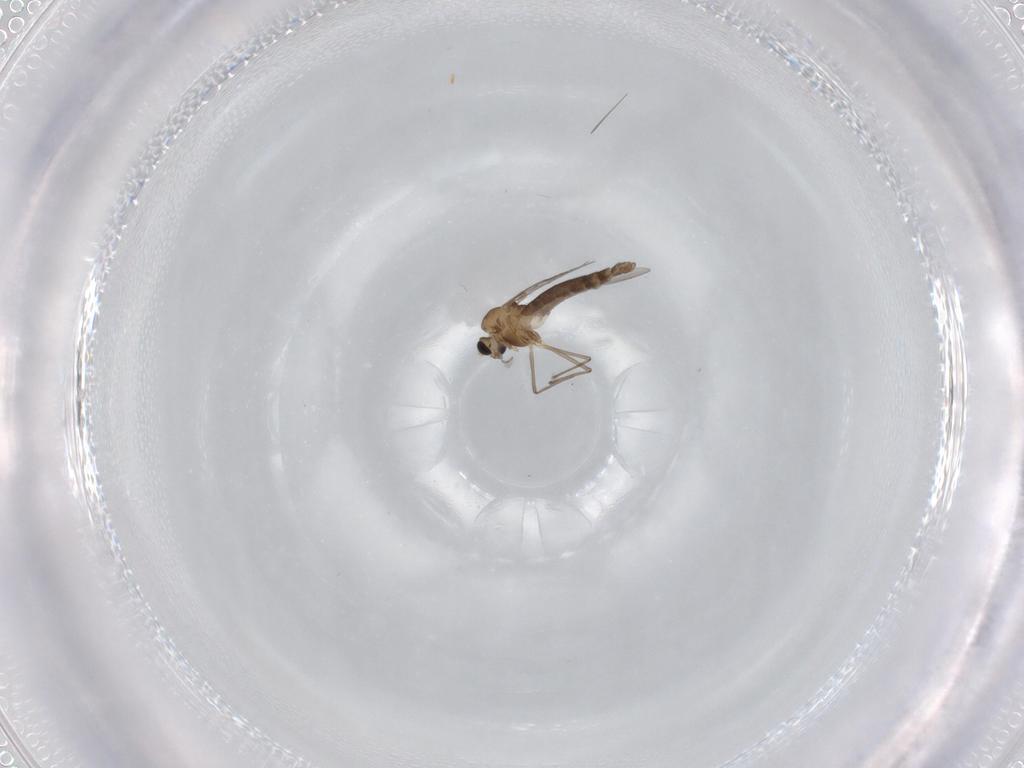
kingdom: Animalia
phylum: Arthropoda
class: Insecta
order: Diptera
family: Chironomidae
